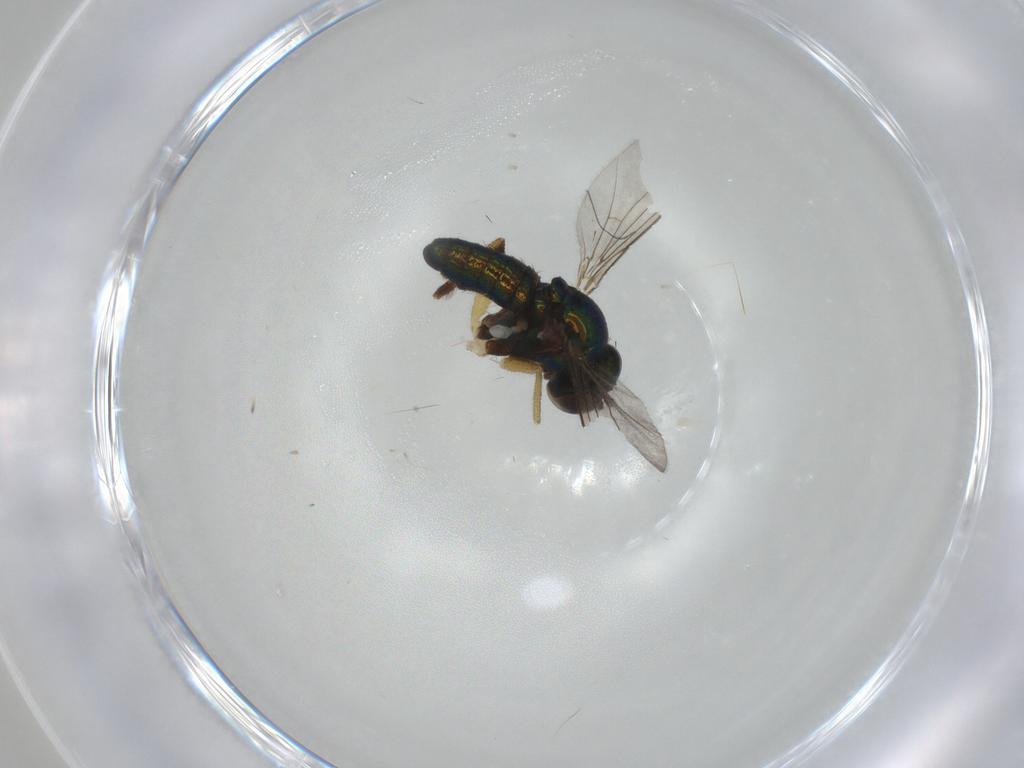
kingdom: Animalia
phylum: Arthropoda
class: Insecta
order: Diptera
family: Dolichopodidae
